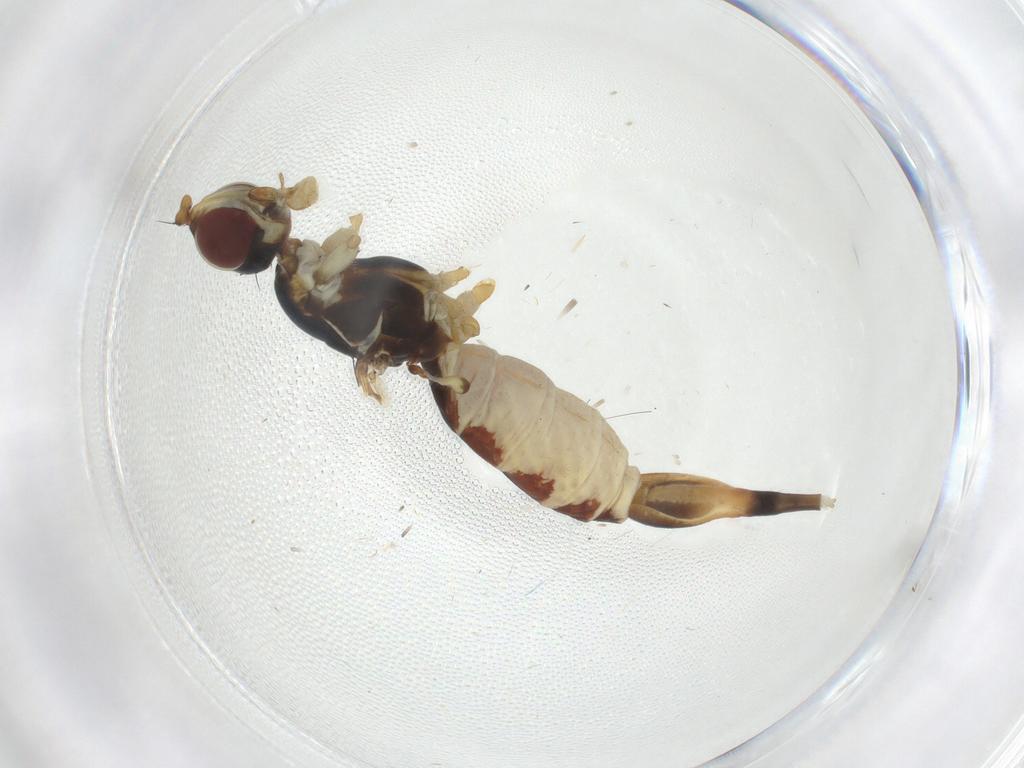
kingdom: Animalia
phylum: Arthropoda
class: Insecta
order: Diptera
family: Micropezidae
